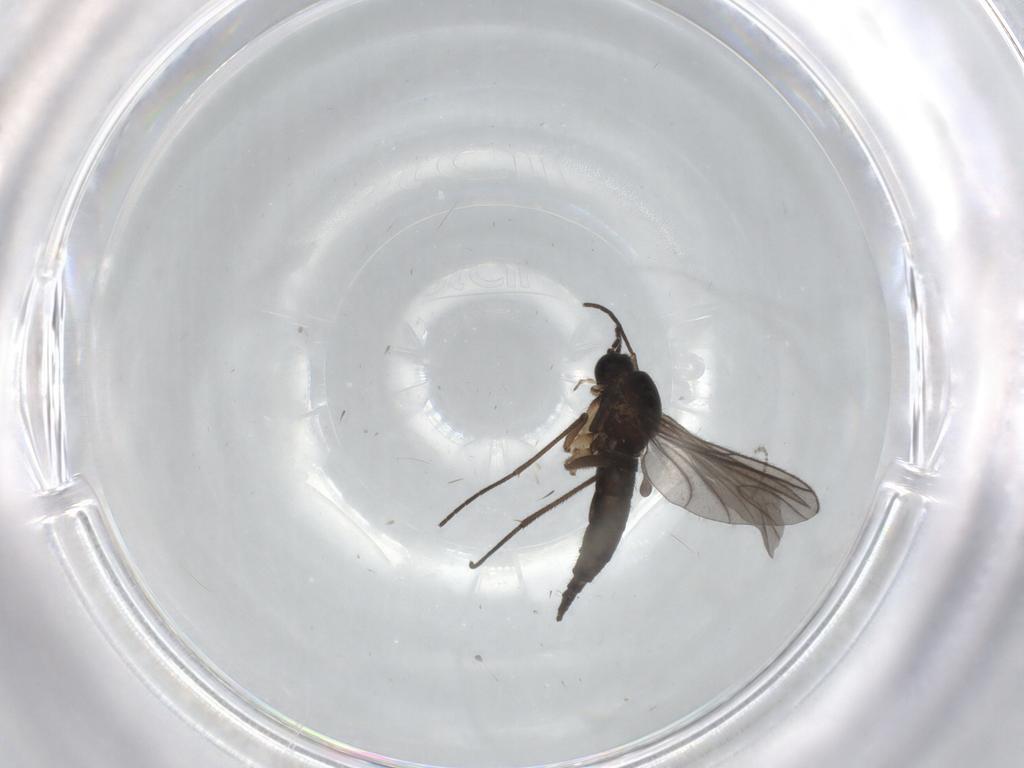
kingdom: Animalia
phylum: Arthropoda
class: Insecta
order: Diptera
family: Sciaridae
